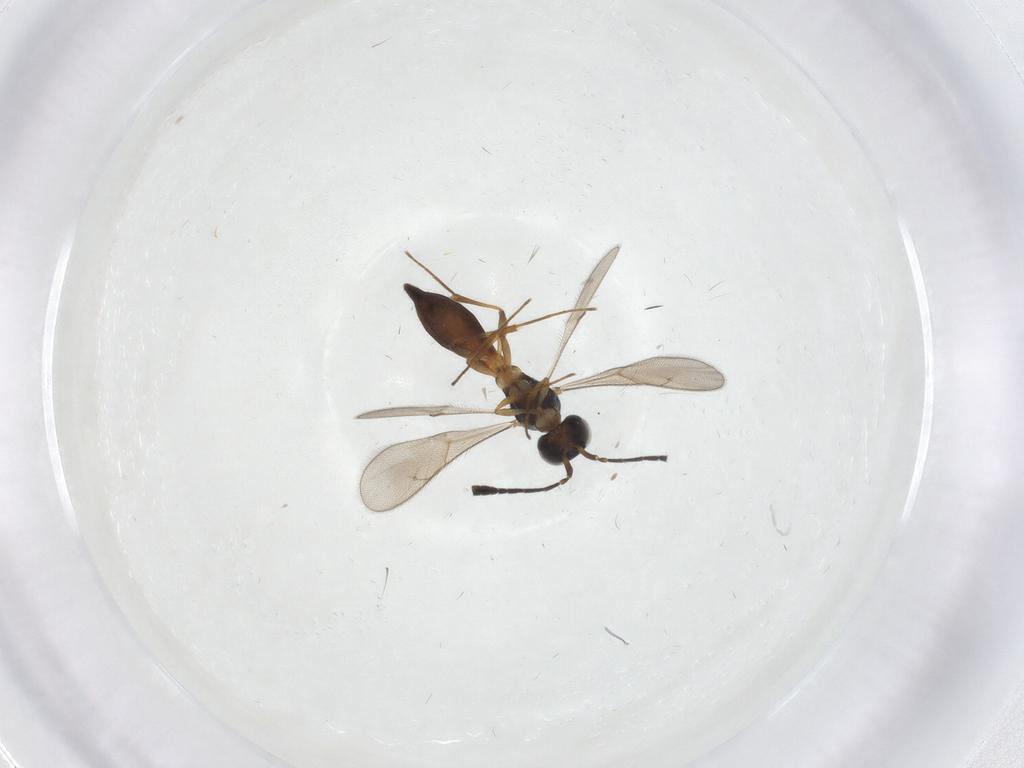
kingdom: Animalia
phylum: Arthropoda
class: Insecta
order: Hymenoptera
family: Scelionidae
